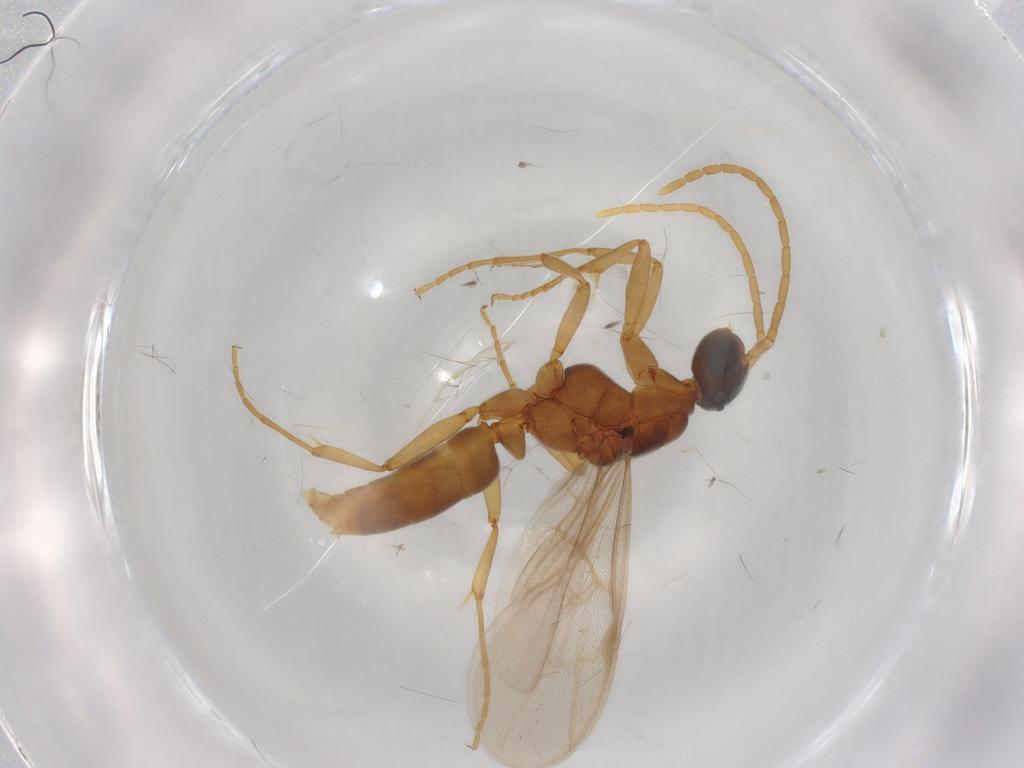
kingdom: Animalia
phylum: Arthropoda
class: Insecta
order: Hymenoptera
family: Formicidae
